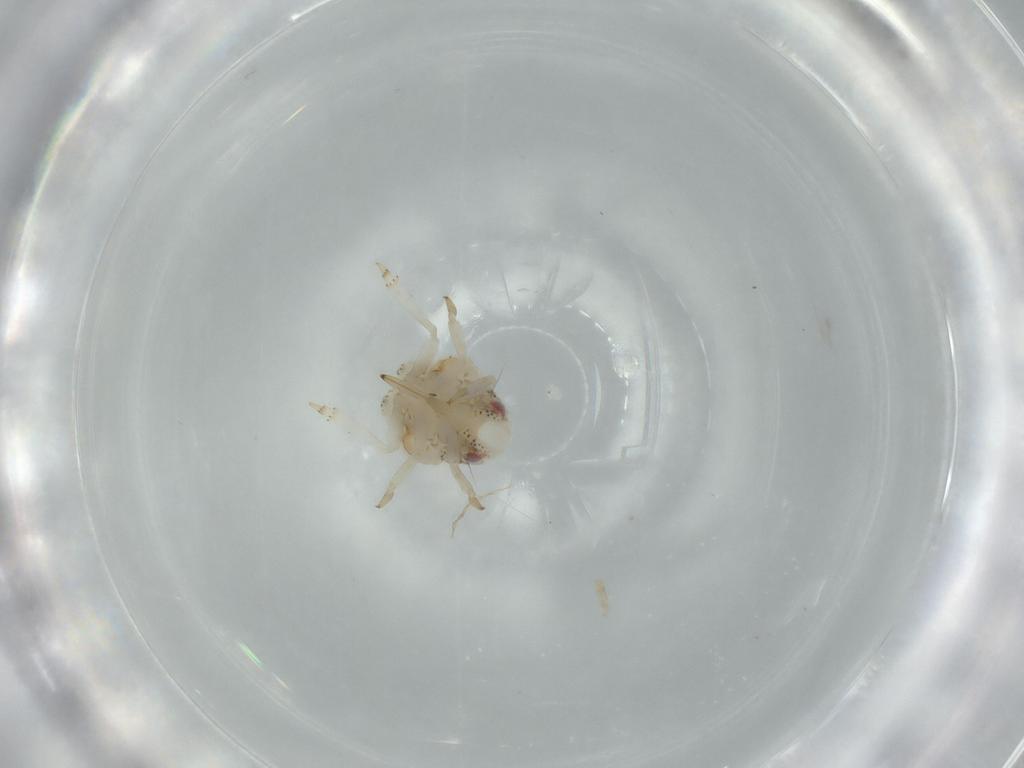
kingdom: Animalia
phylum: Arthropoda
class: Insecta
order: Hemiptera
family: Acanaloniidae
